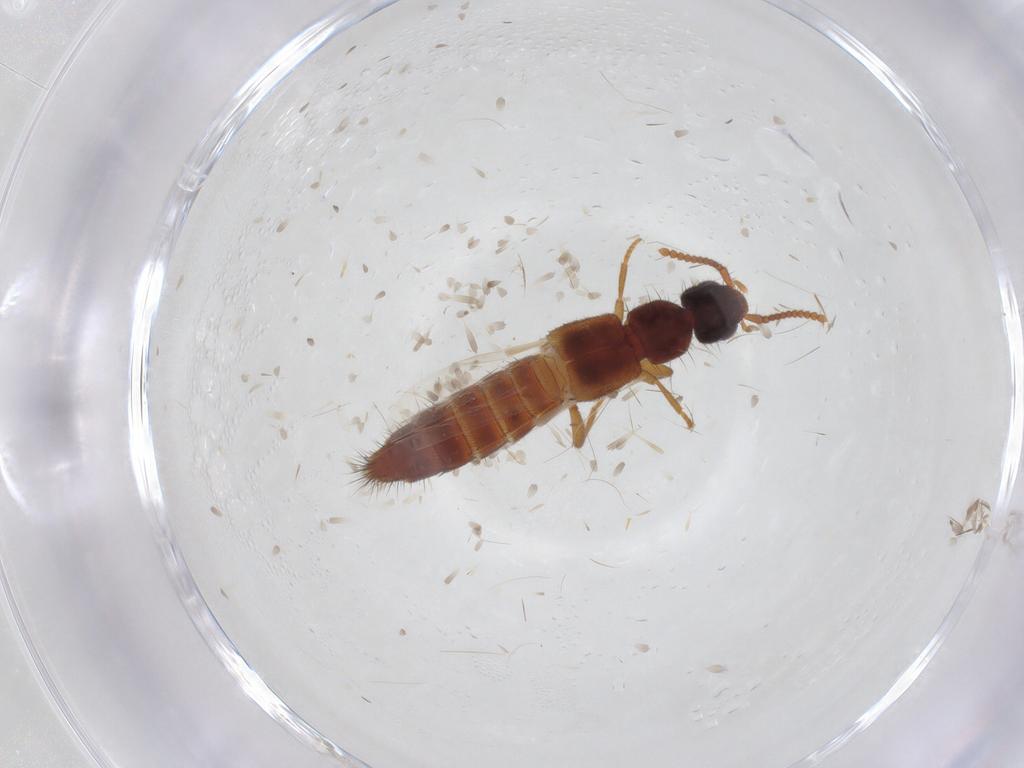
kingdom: Animalia
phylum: Arthropoda
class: Insecta
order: Coleoptera
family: Staphylinidae
